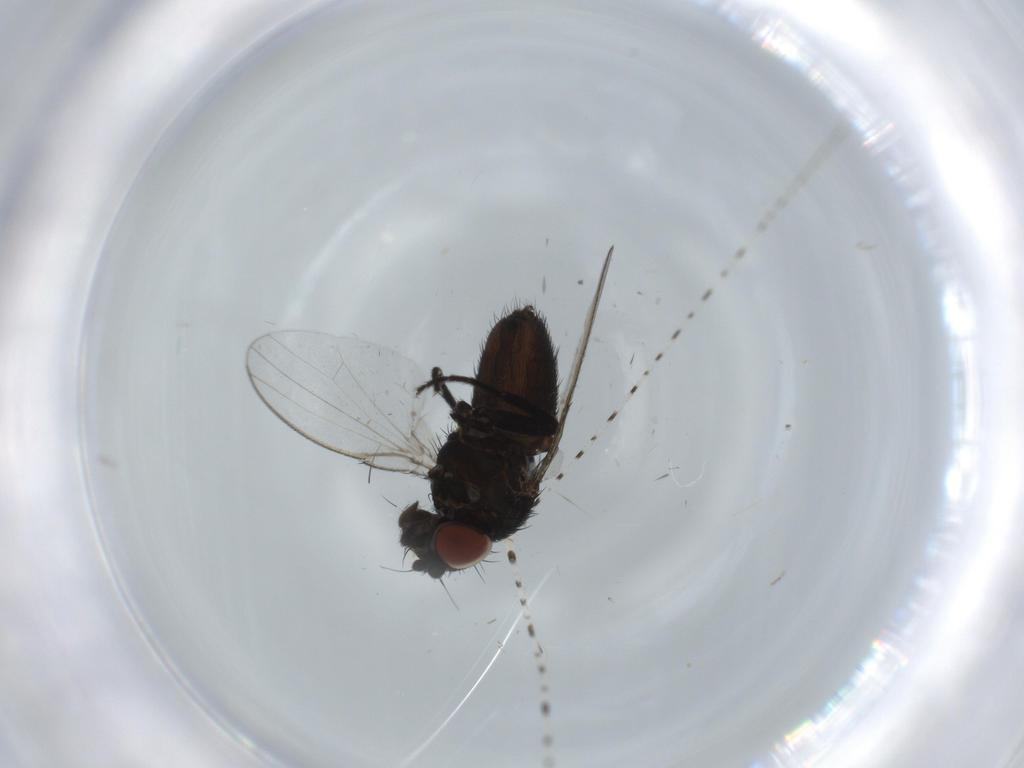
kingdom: Animalia
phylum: Arthropoda
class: Insecta
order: Diptera
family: Milichiidae
